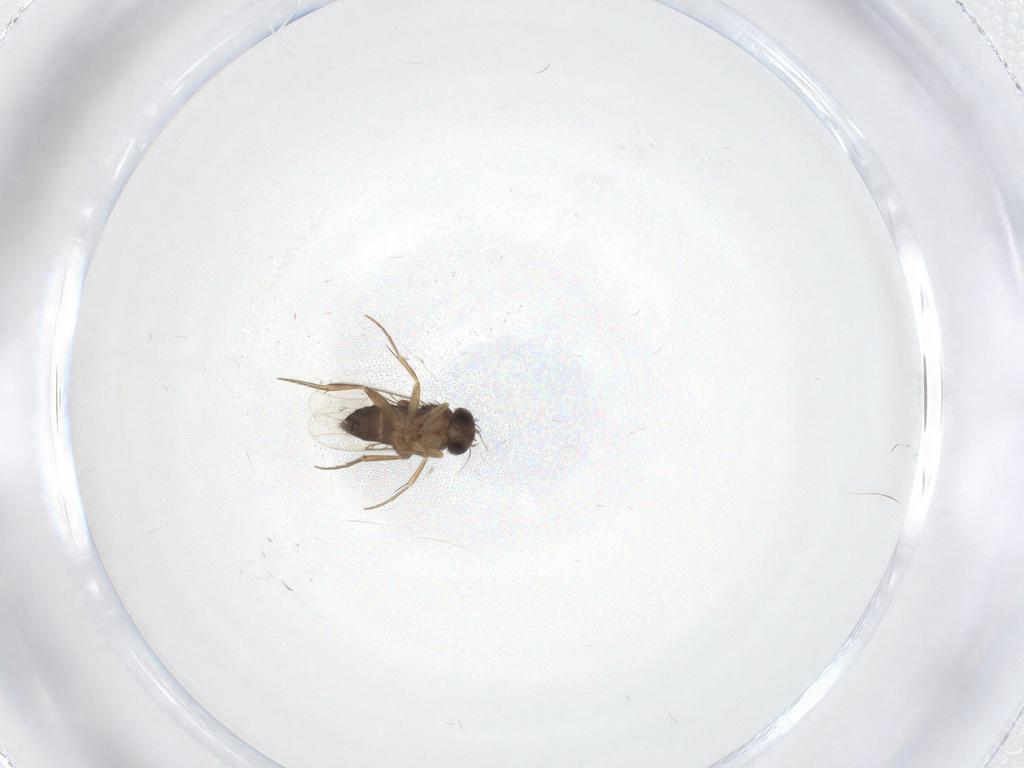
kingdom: Animalia
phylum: Arthropoda
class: Insecta
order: Diptera
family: Phoridae
